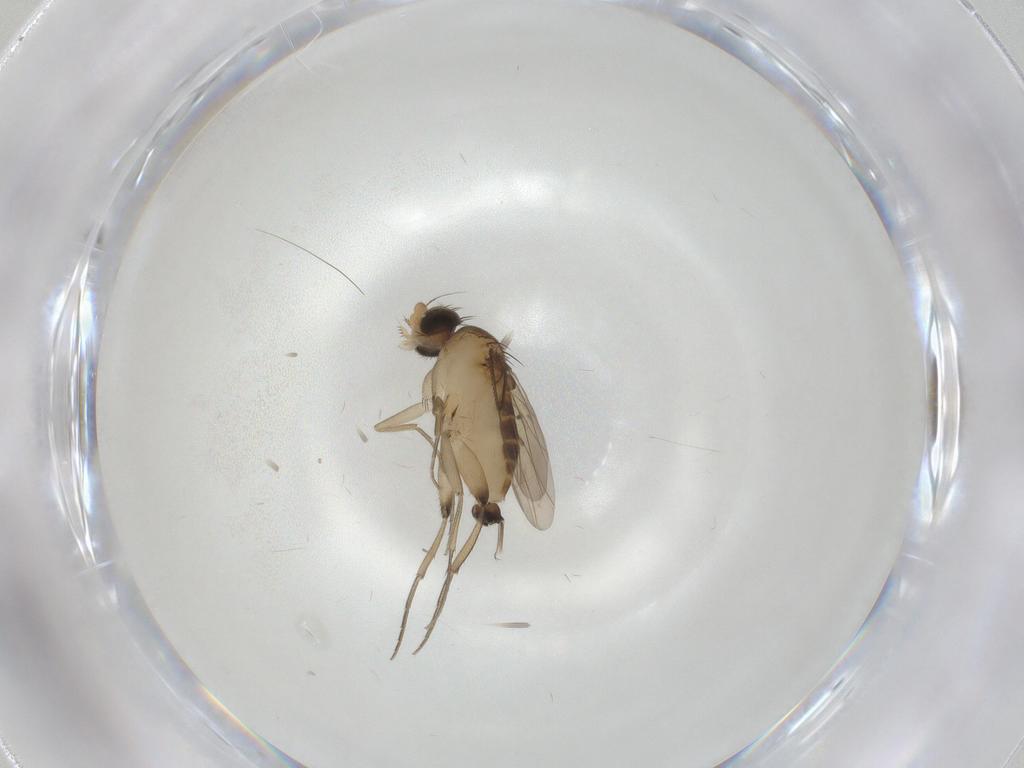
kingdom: Animalia
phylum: Arthropoda
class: Insecta
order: Diptera
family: Phoridae
